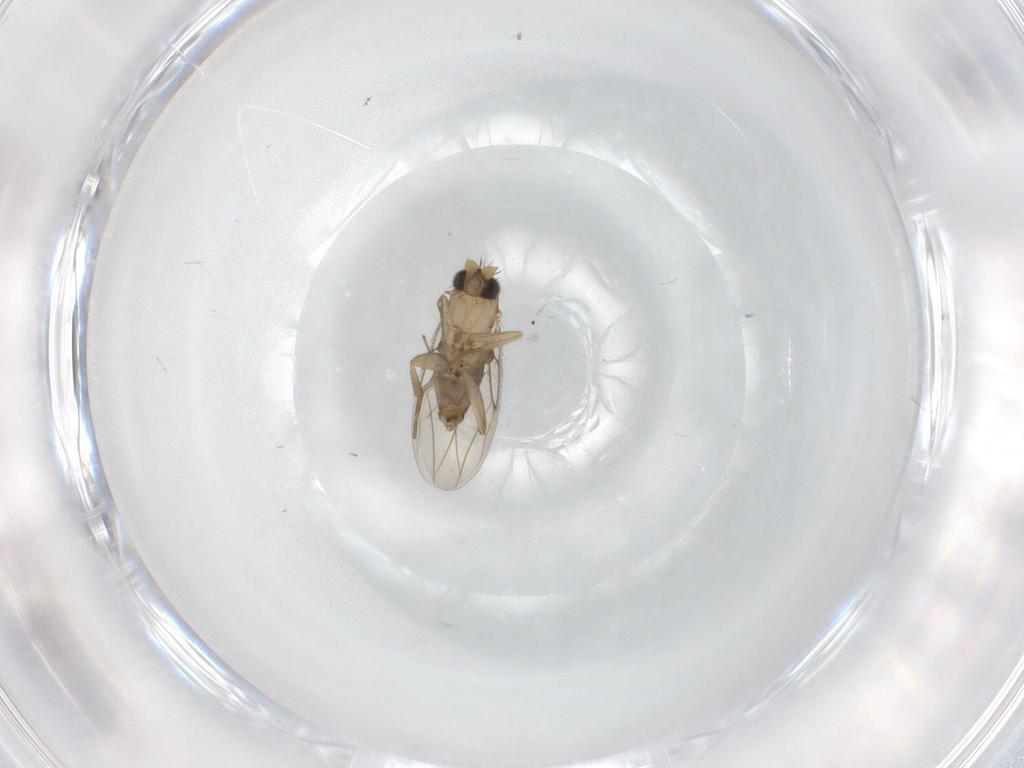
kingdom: Animalia
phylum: Arthropoda
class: Insecta
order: Diptera
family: Phoridae
